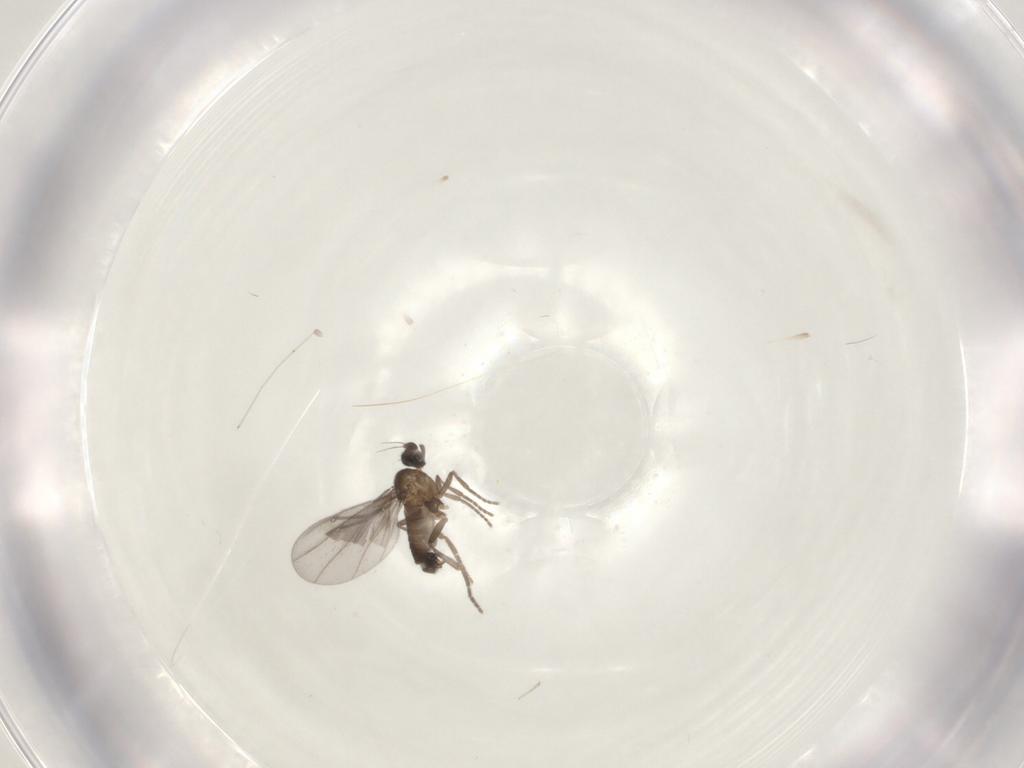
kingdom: Animalia
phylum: Arthropoda
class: Insecta
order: Diptera
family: Phoridae
